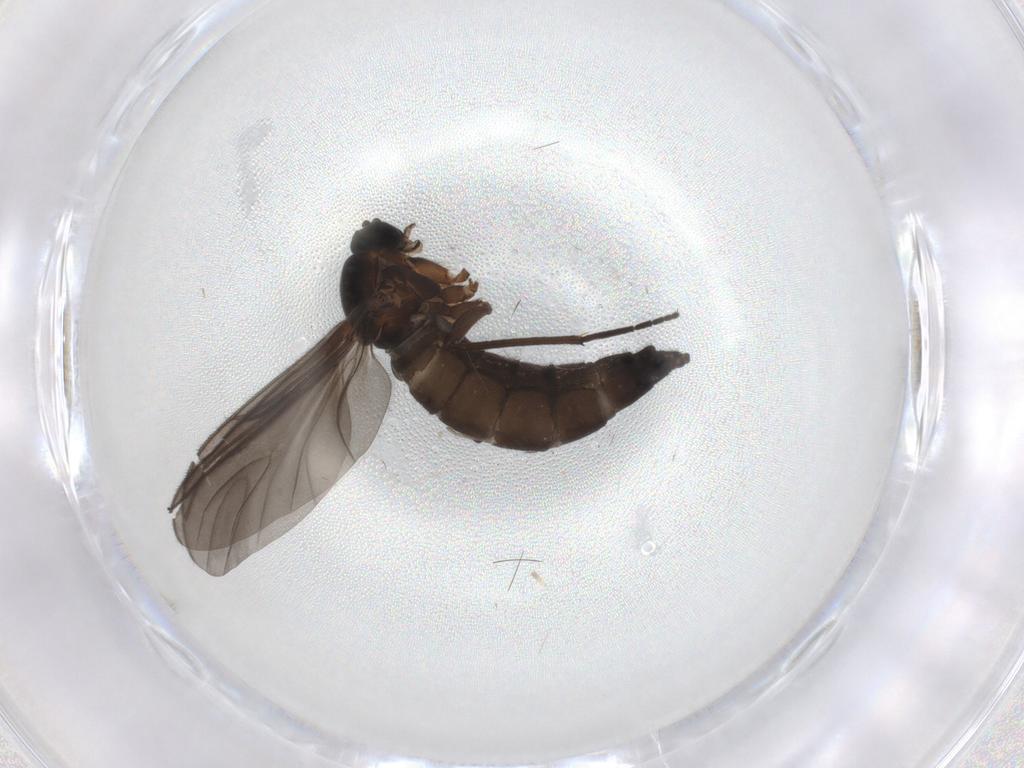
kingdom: Animalia
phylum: Arthropoda
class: Insecta
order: Diptera
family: Sciaridae
